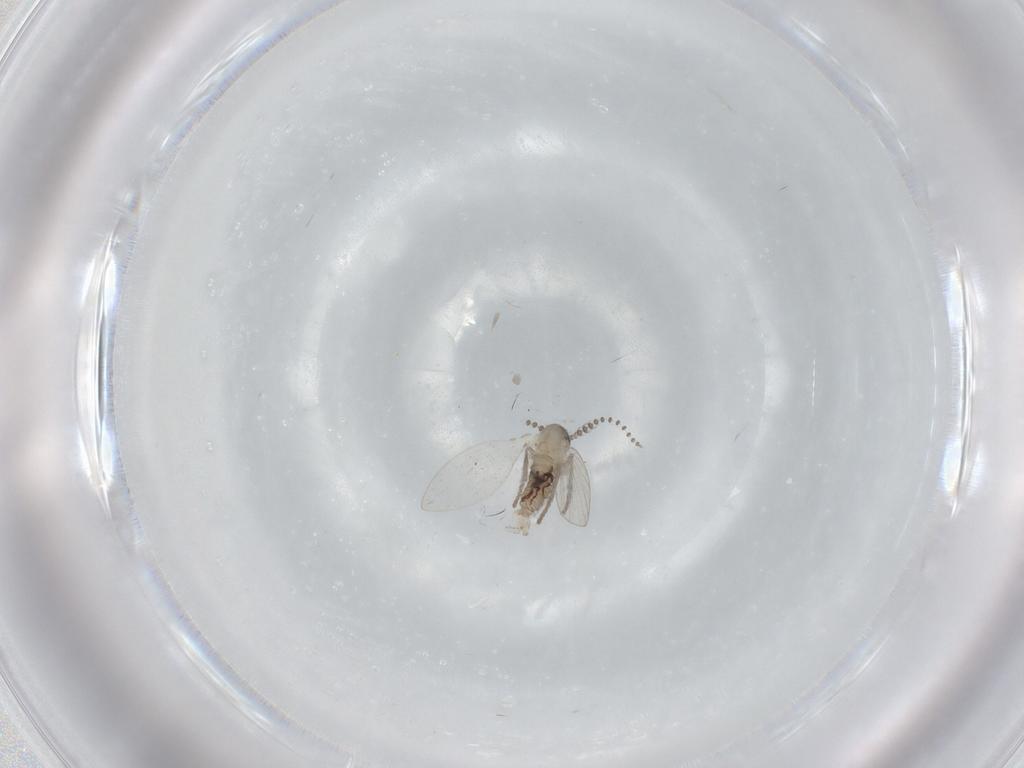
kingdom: Animalia
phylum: Arthropoda
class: Insecta
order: Diptera
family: Psychodidae
